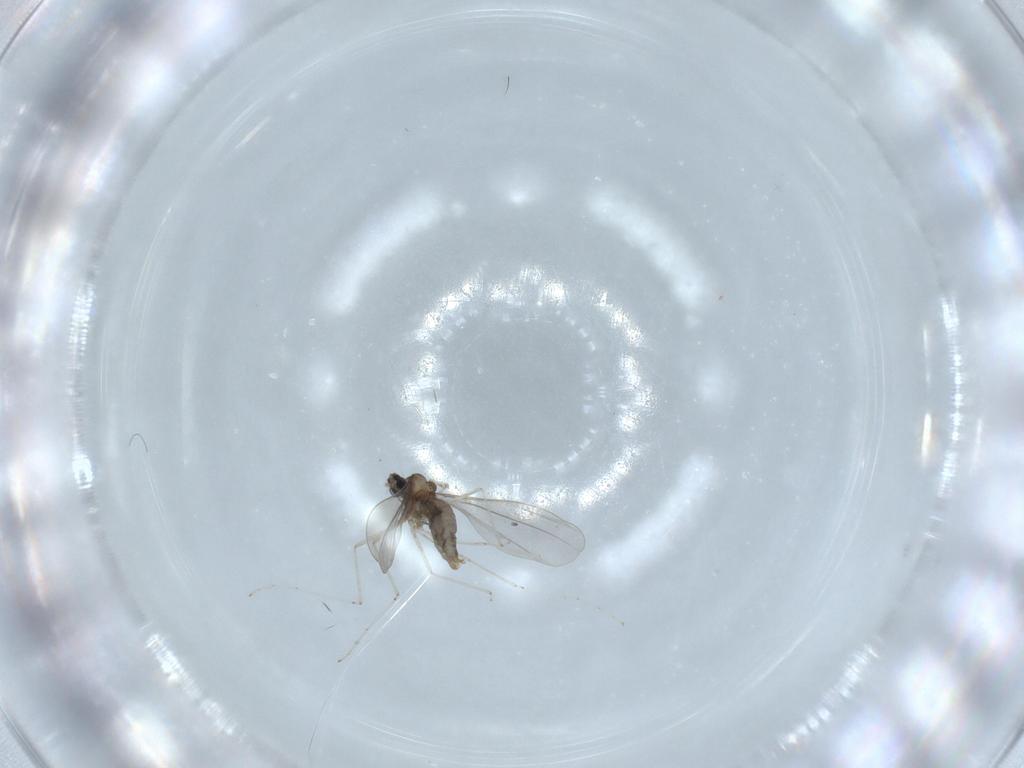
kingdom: Animalia
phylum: Arthropoda
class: Insecta
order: Diptera
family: Cecidomyiidae
